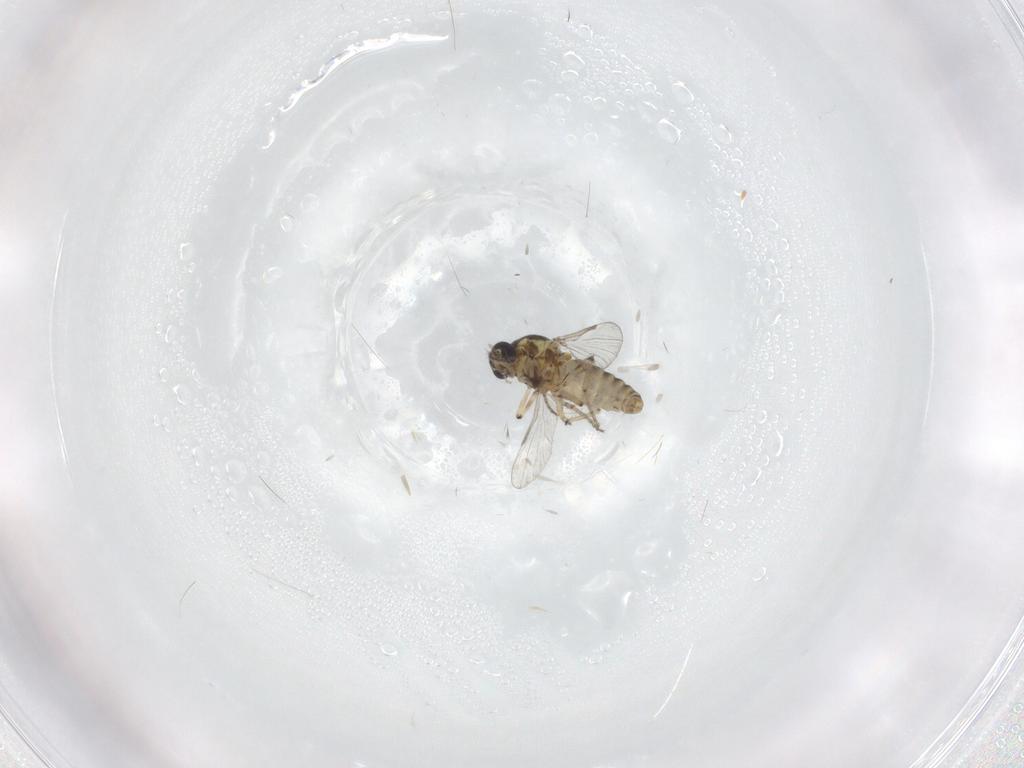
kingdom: Animalia
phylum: Arthropoda
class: Insecta
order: Diptera
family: Ceratopogonidae
